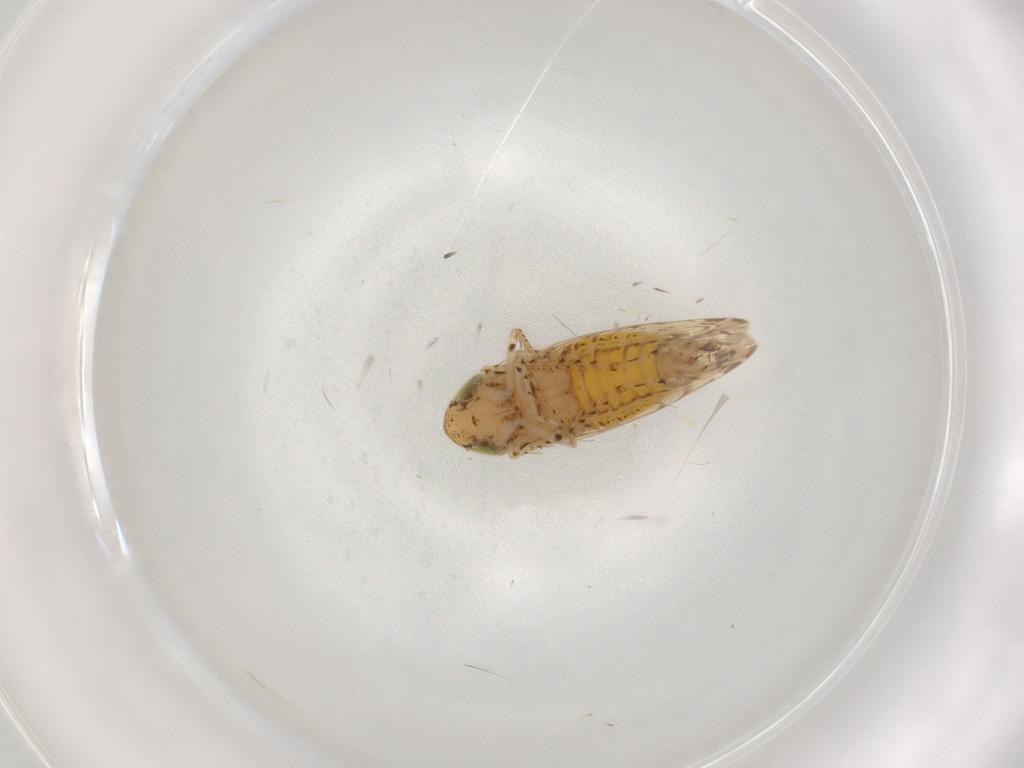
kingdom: Animalia
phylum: Arthropoda
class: Insecta
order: Hemiptera
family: Cicadellidae
